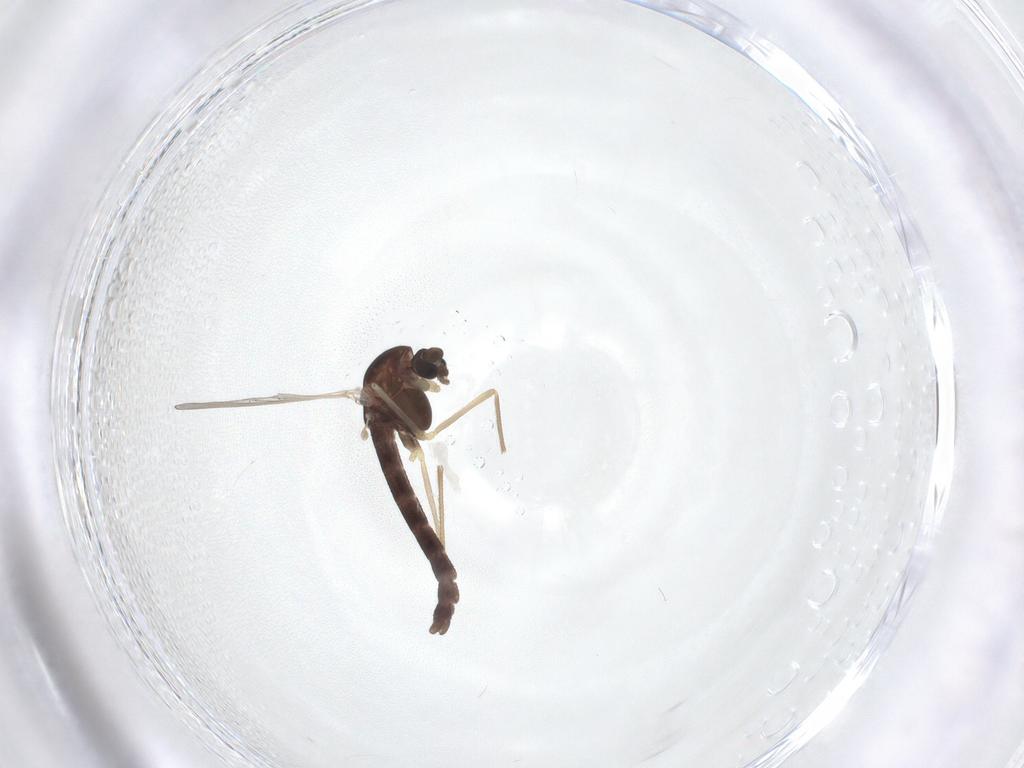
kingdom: Animalia
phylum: Arthropoda
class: Insecta
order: Diptera
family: Chironomidae
